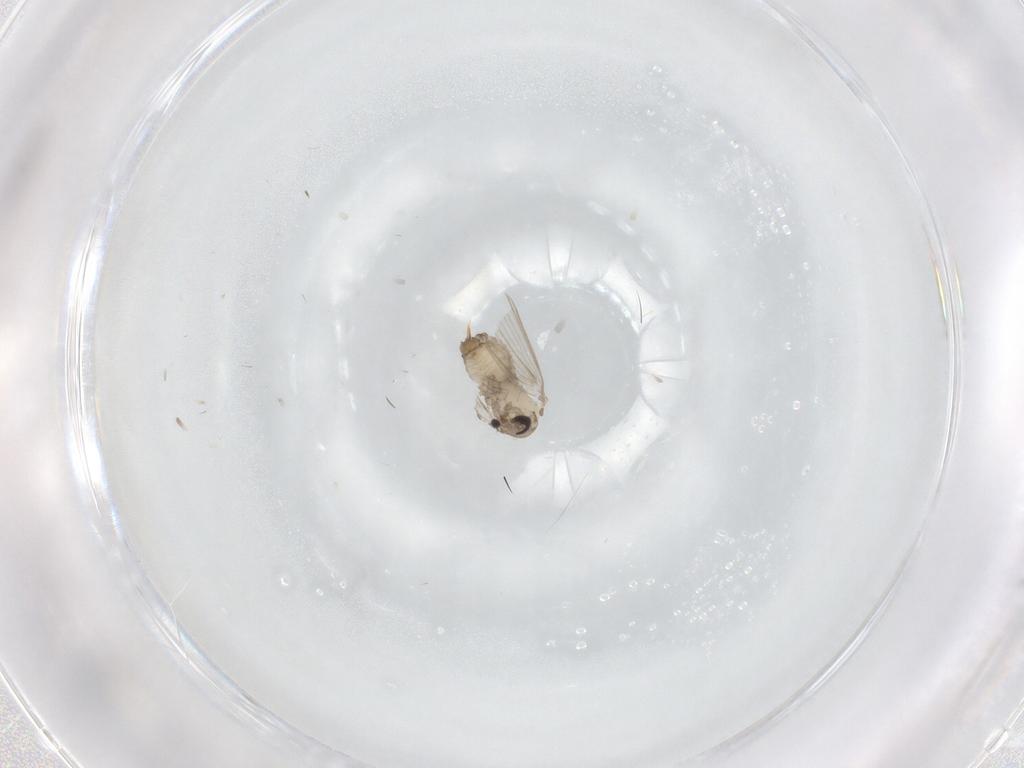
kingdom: Animalia
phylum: Arthropoda
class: Insecta
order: Diptera
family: Psychodidae
